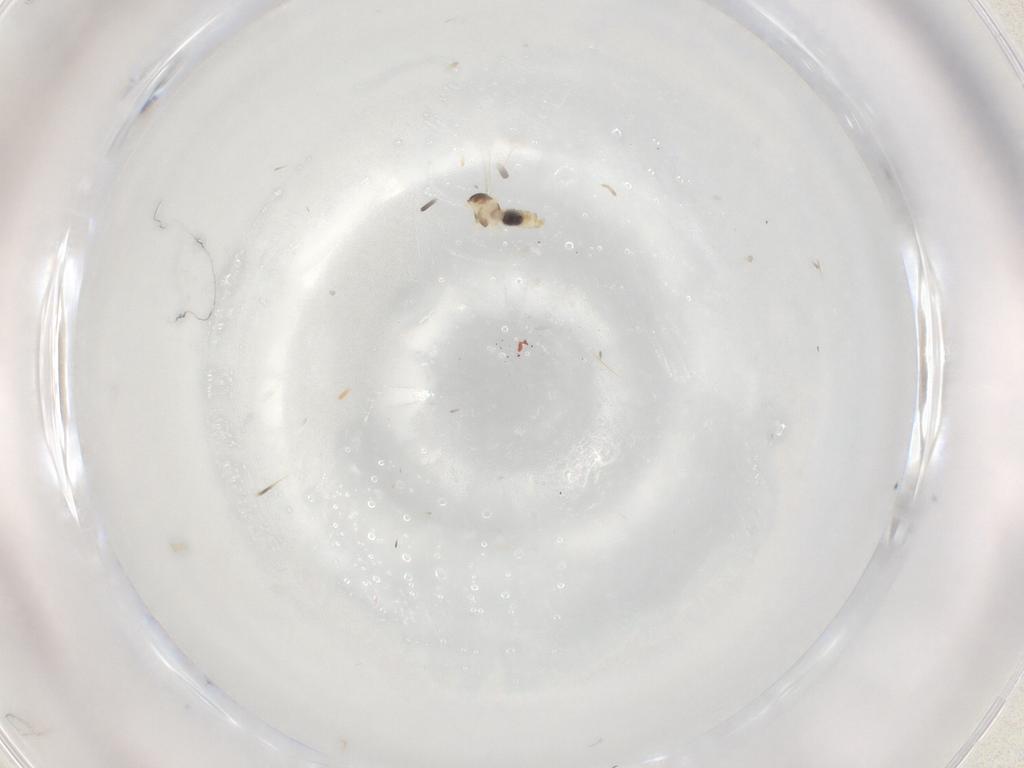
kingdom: Animalia
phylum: Arthropoda
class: Insecta
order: Diptera
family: Cecidomyiidae
